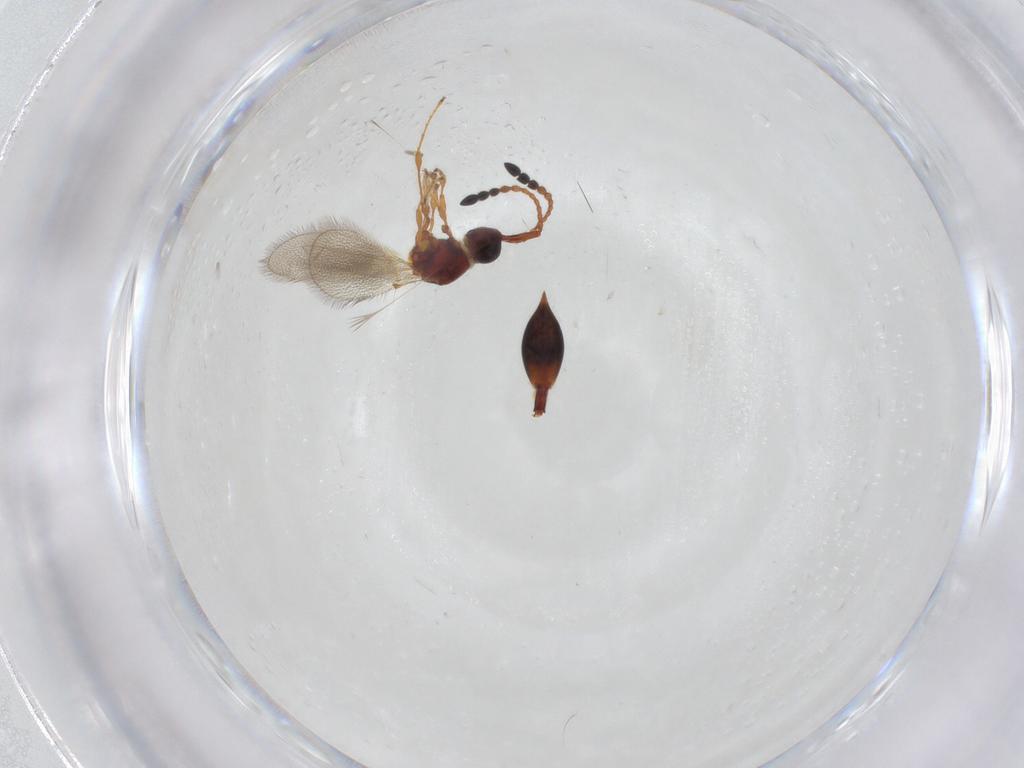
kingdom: Animalia
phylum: Arthropoda
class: Insecta
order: Hymenoptera
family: Diapriidae
